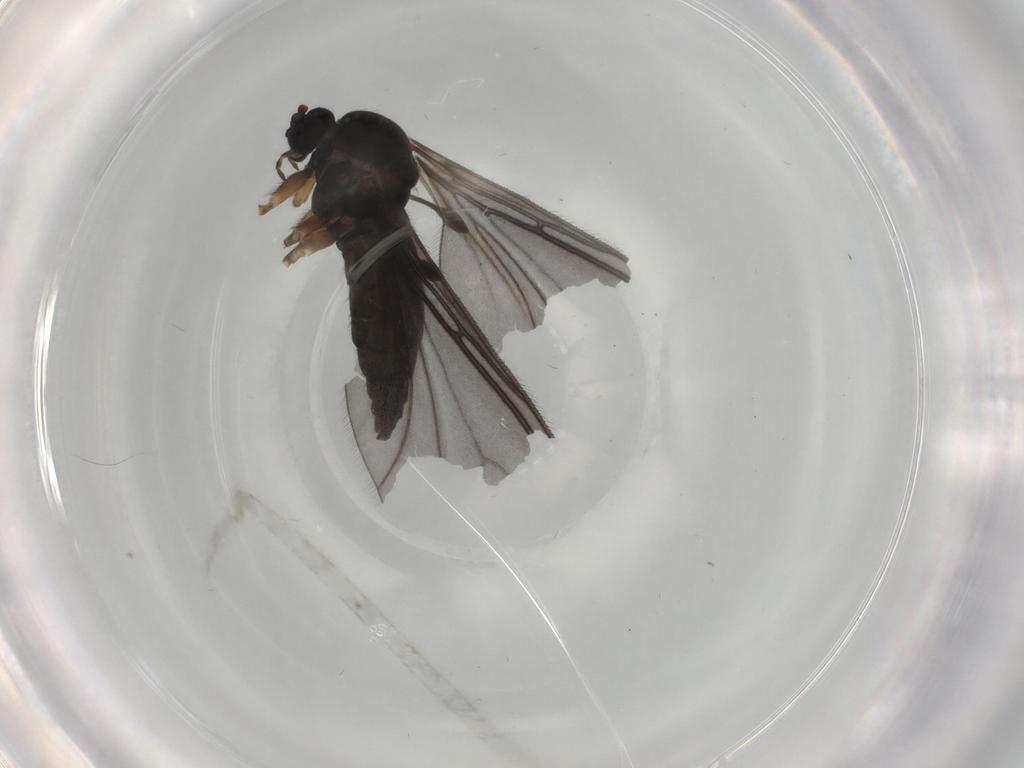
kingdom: Animalia
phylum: Arthropoda
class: Insecta
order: Diptera
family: Sciaridae
